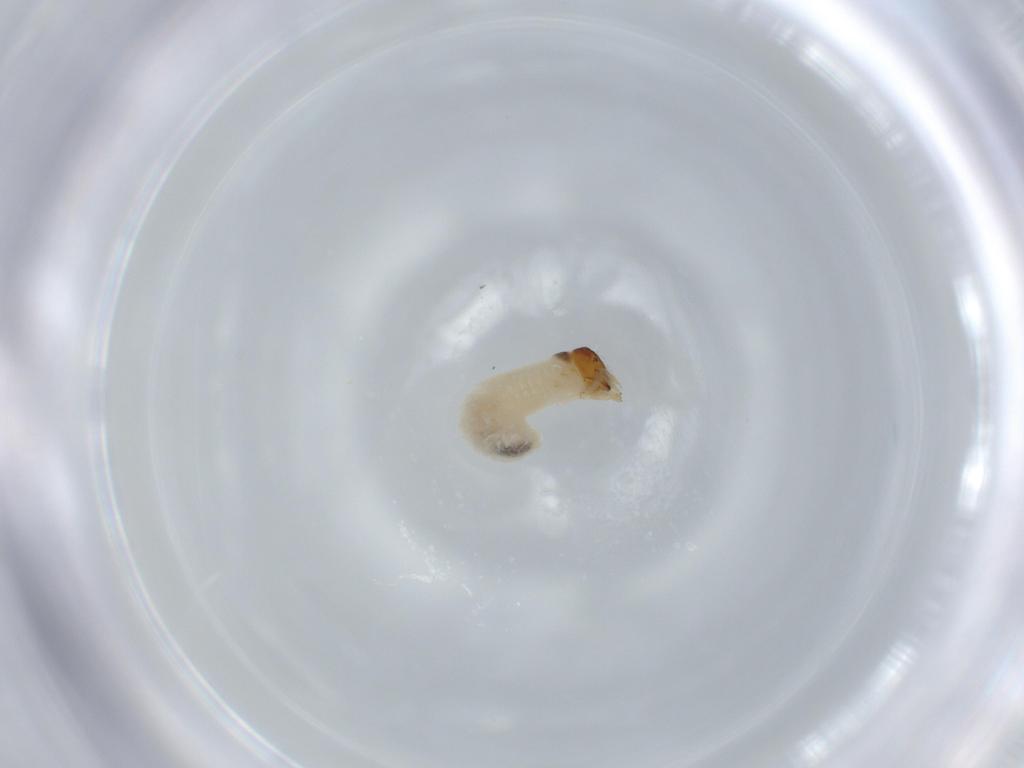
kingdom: Animalia
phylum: Arthropoda
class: Insecta
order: Coleoptera
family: Chrysomelidae
